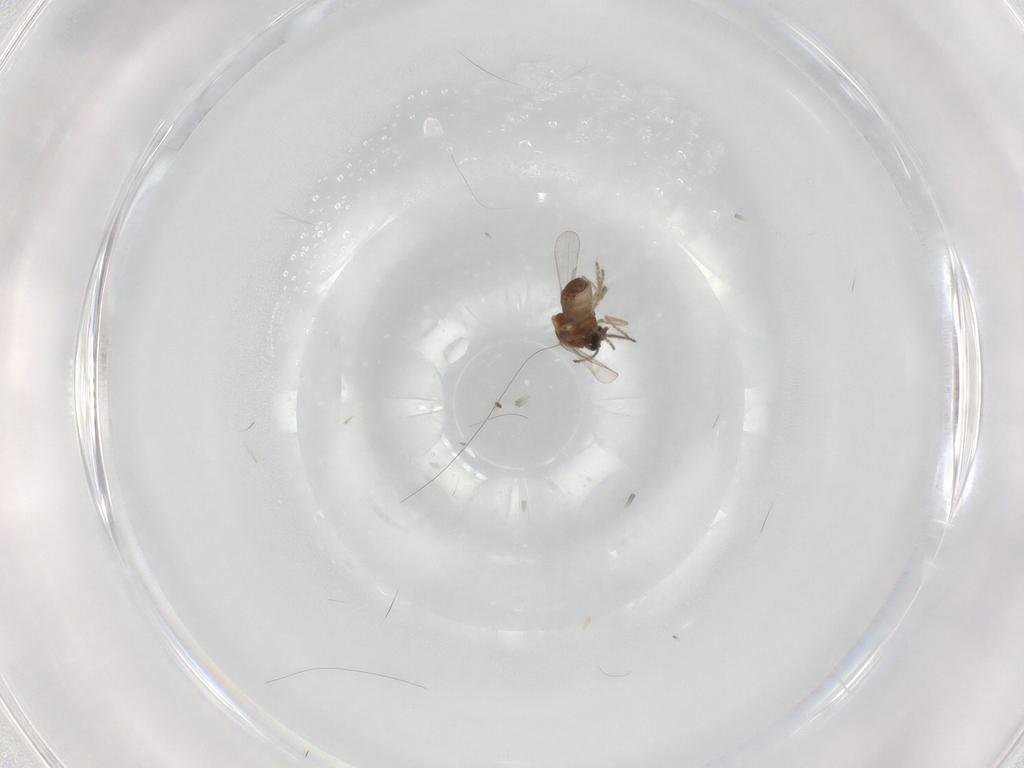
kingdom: Animalia
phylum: Arthropoda
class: Insecta
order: Diptera
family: Ceratopogonidae
